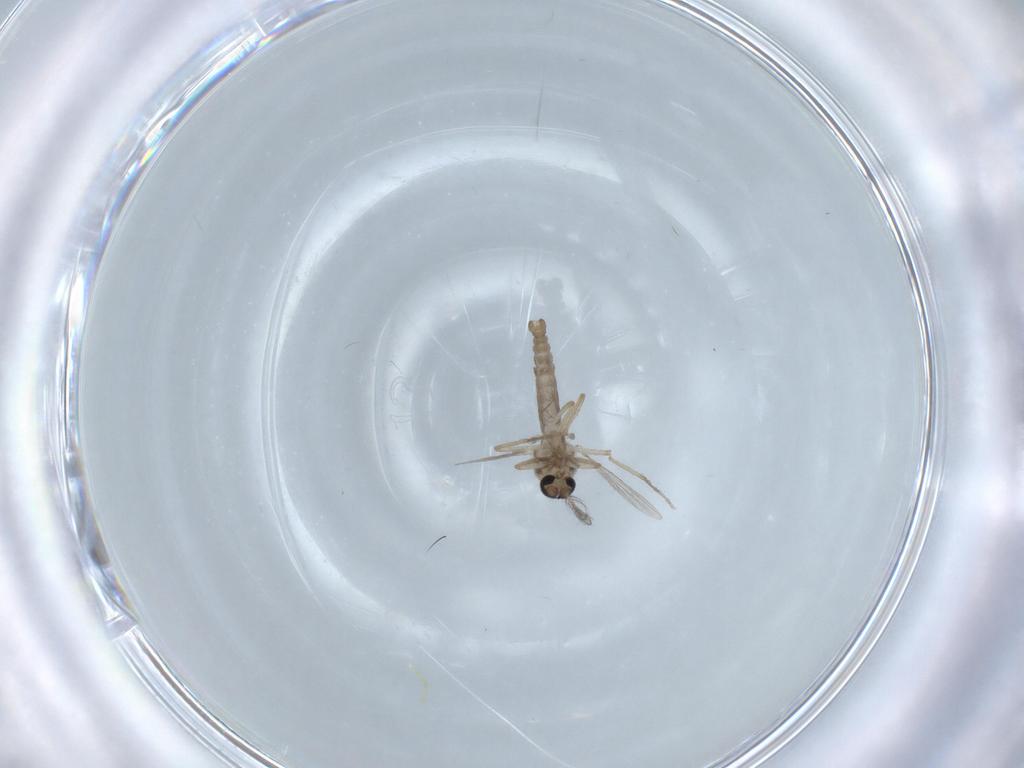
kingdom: Animalia
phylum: Arthropoda
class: Insecta
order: Diptera
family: Ceratopogonidae
